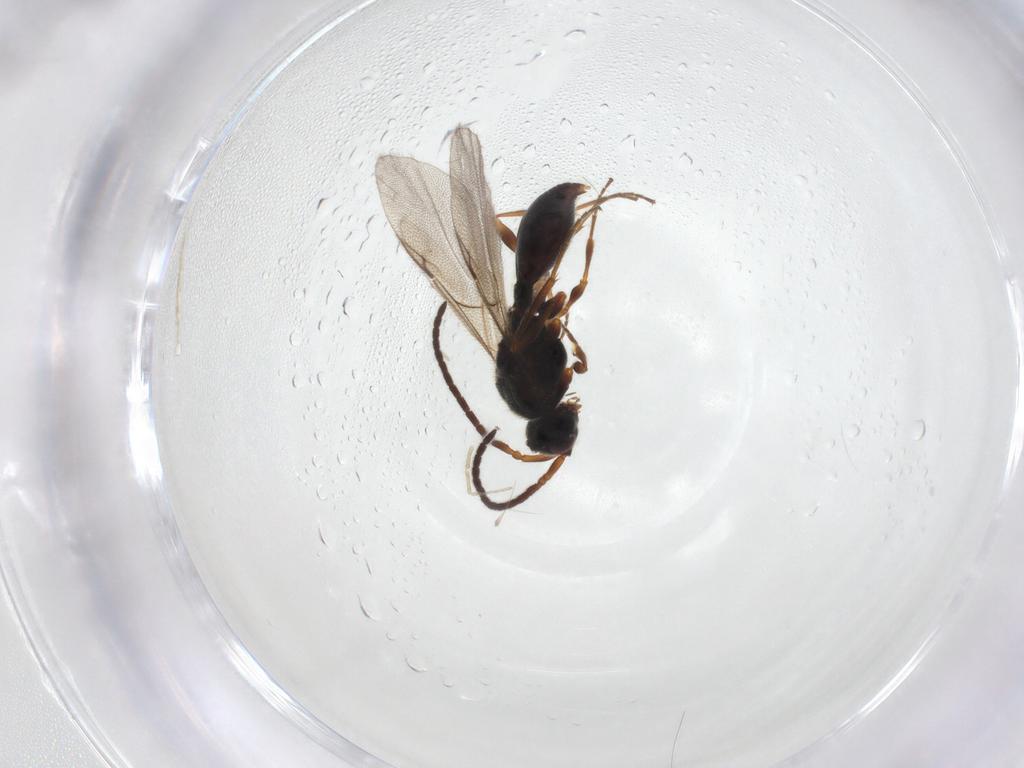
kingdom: Animalia
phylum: Arthropoda
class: Insecta
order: Hymenoptera
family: Diapriidae
